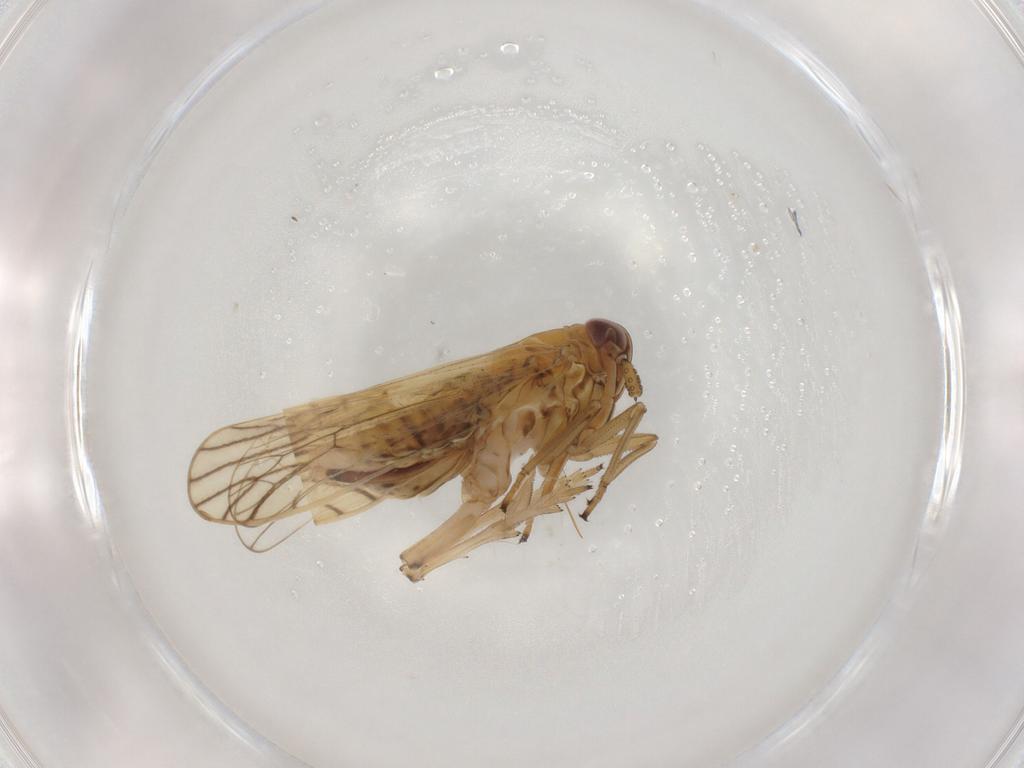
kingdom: Animalia
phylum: Arthropoda
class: Insecta
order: Hemiptera
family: Delphacidae
